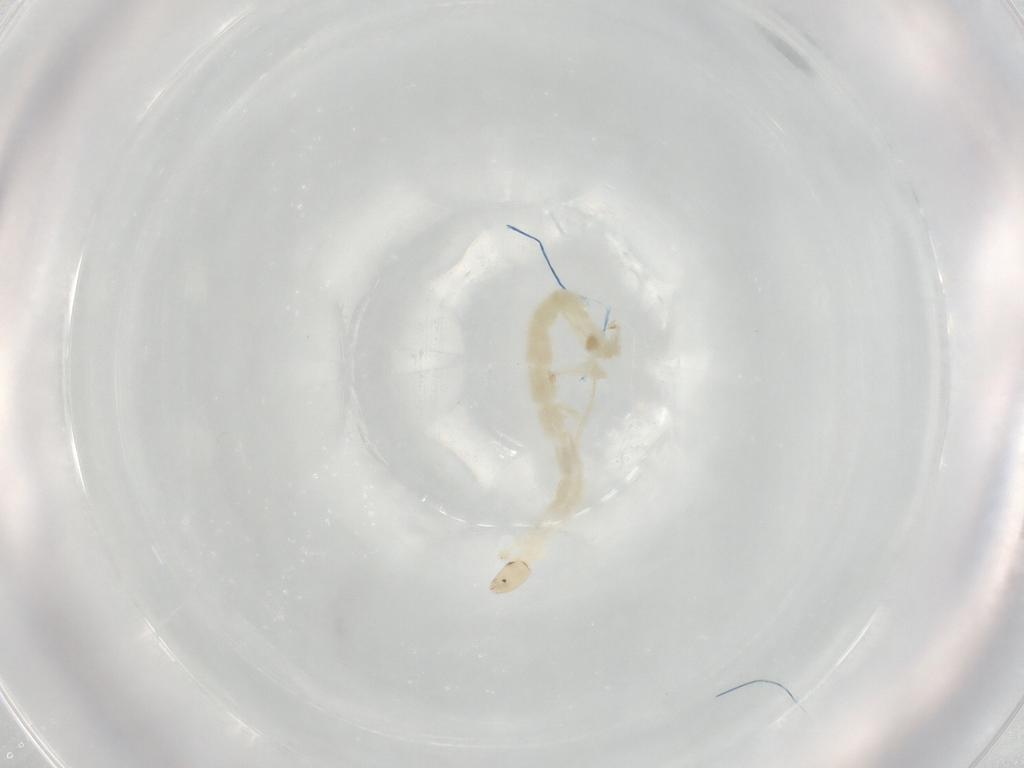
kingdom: Animalia
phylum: Arthropoda
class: Insecta
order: Diptera
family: Chironomidae
